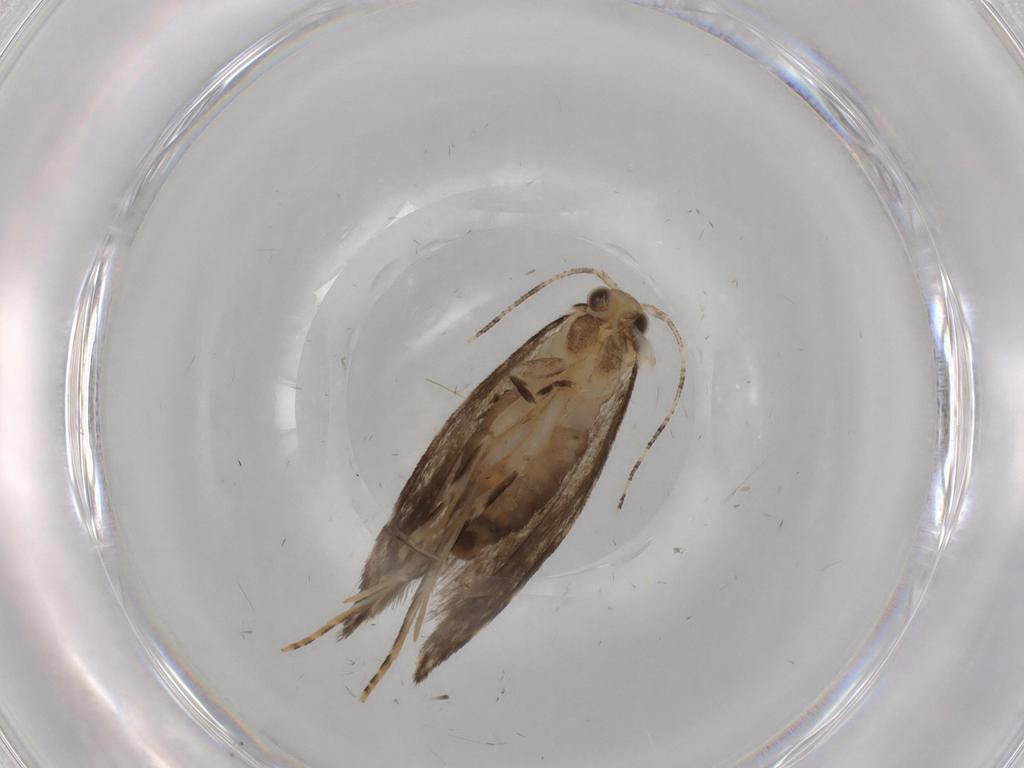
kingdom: Animalia
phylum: Arthropoda
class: Insecta
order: Lepidoptera
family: Tineidae
